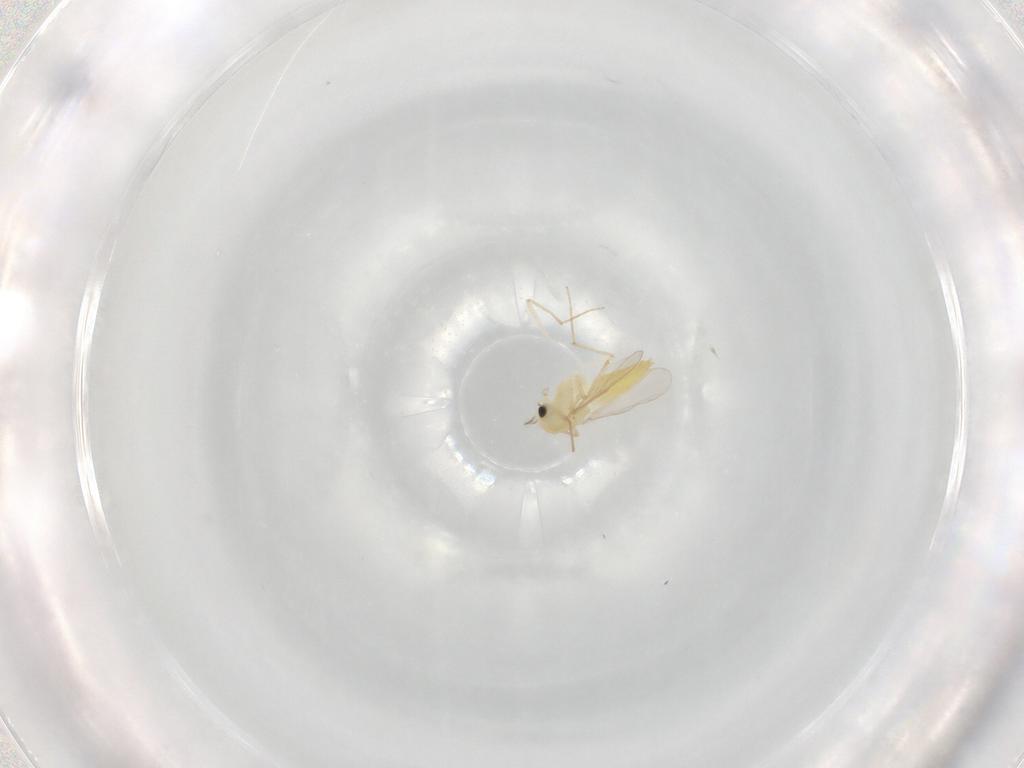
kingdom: Animalia
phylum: Arthropoda
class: Insecta
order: Diptera
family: Chironomidae
